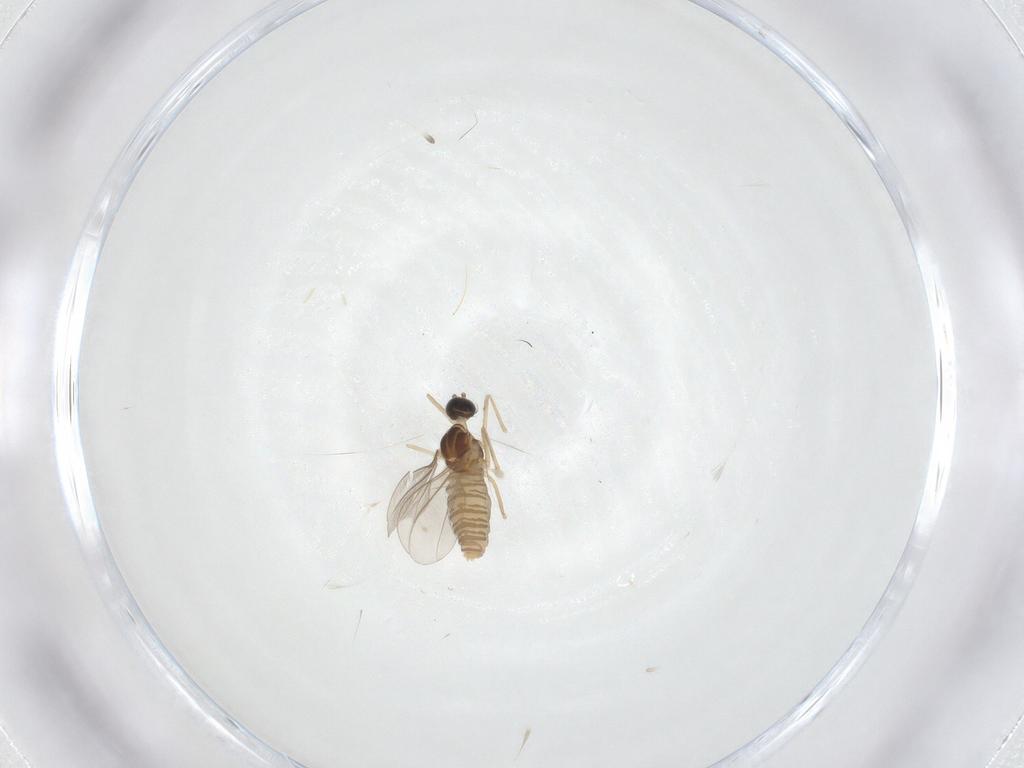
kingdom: Animalia
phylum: Arthropoda
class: Insecta
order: Diptera
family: Cecidomyiidae
